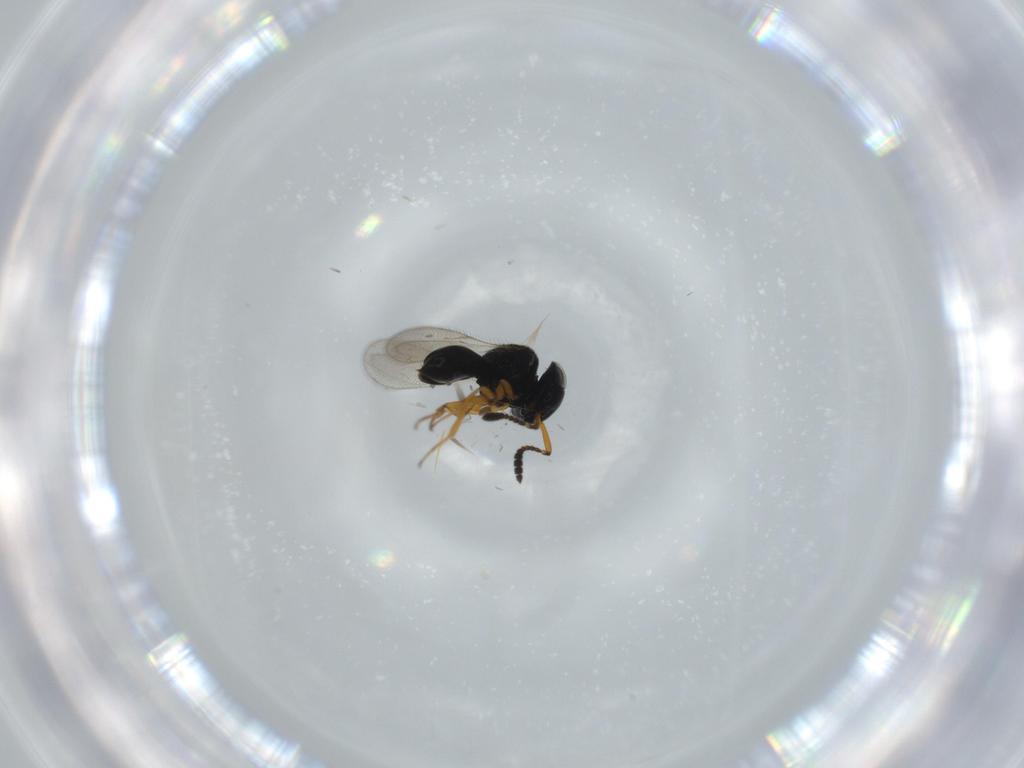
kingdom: Animalia
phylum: Arthropoda
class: Insecta
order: Hymenoptera
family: Scelionidae
